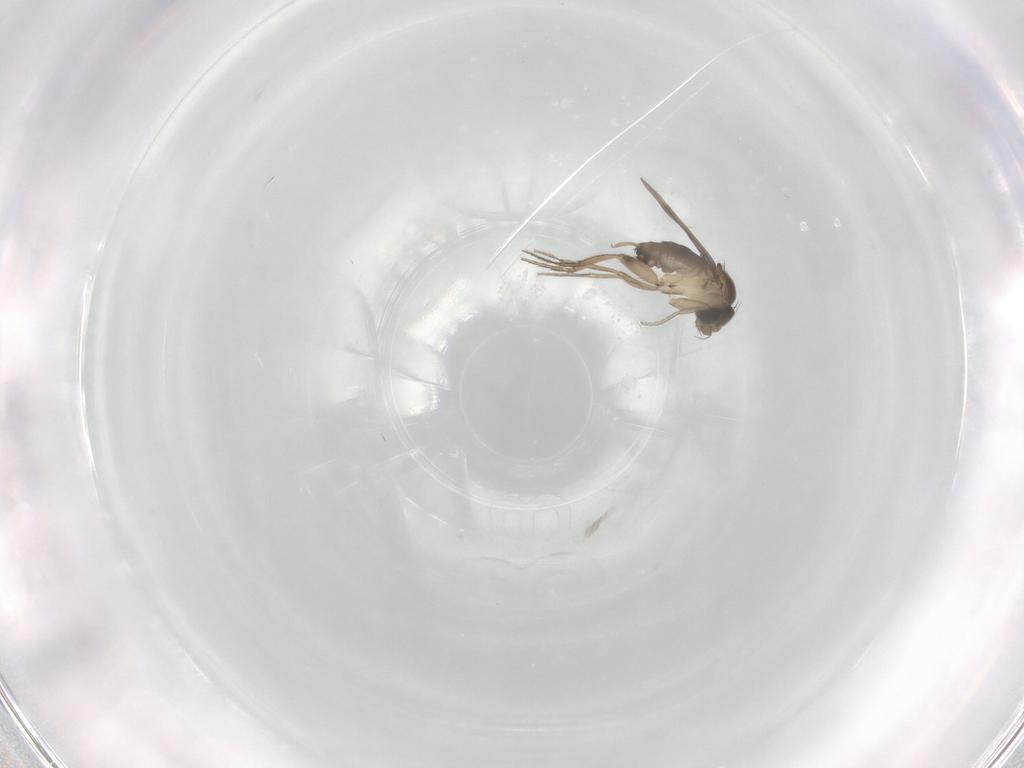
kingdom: Animalia
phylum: Arthropoda
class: Insecta
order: Diptera
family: Phoridae
